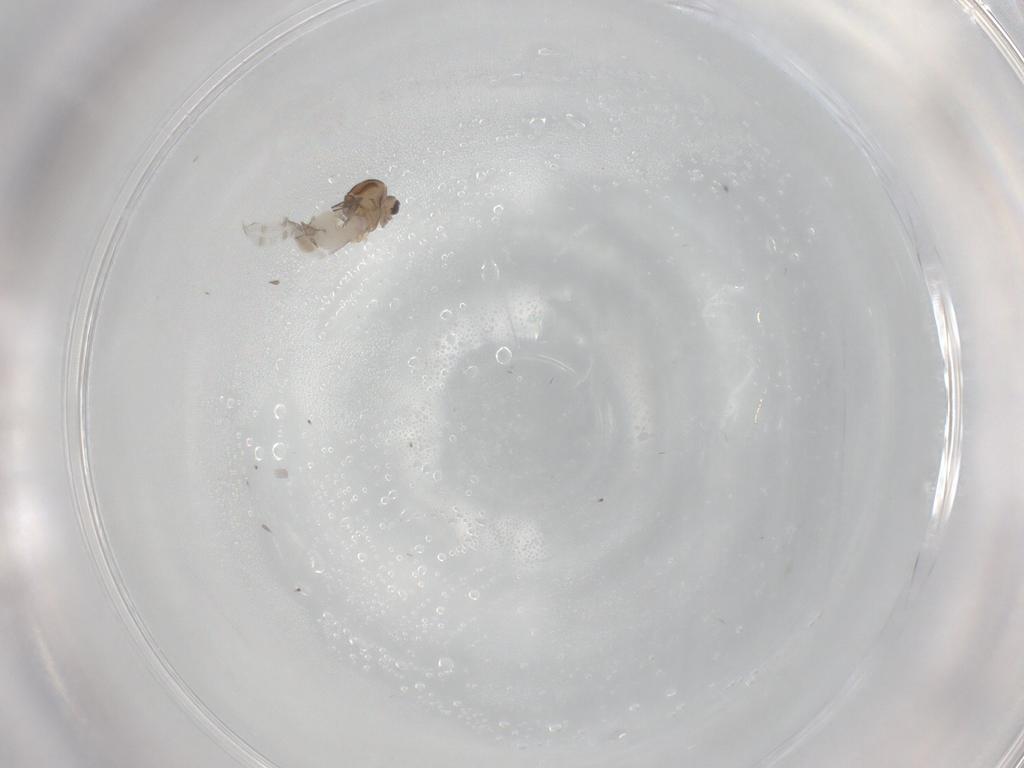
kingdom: Animalia
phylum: Arthropoda
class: Insecta
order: Diptera
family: Chironomidae
